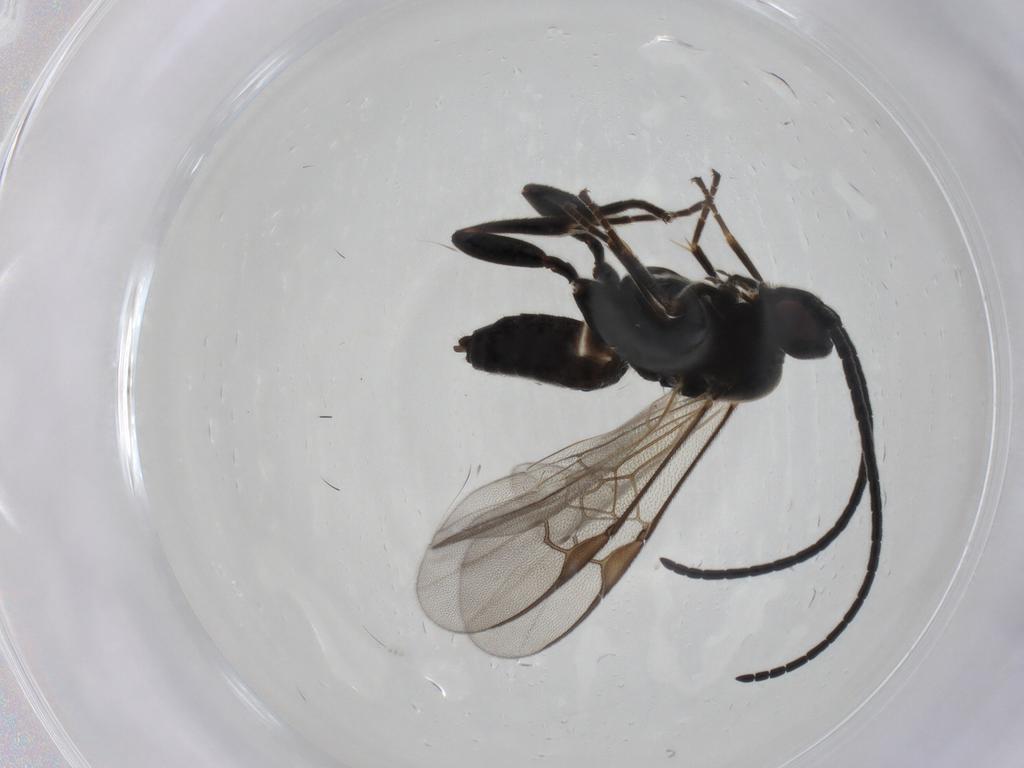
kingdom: Animalia
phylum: Arthropoda
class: Insecta
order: Hymenoptera
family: Braconidae
